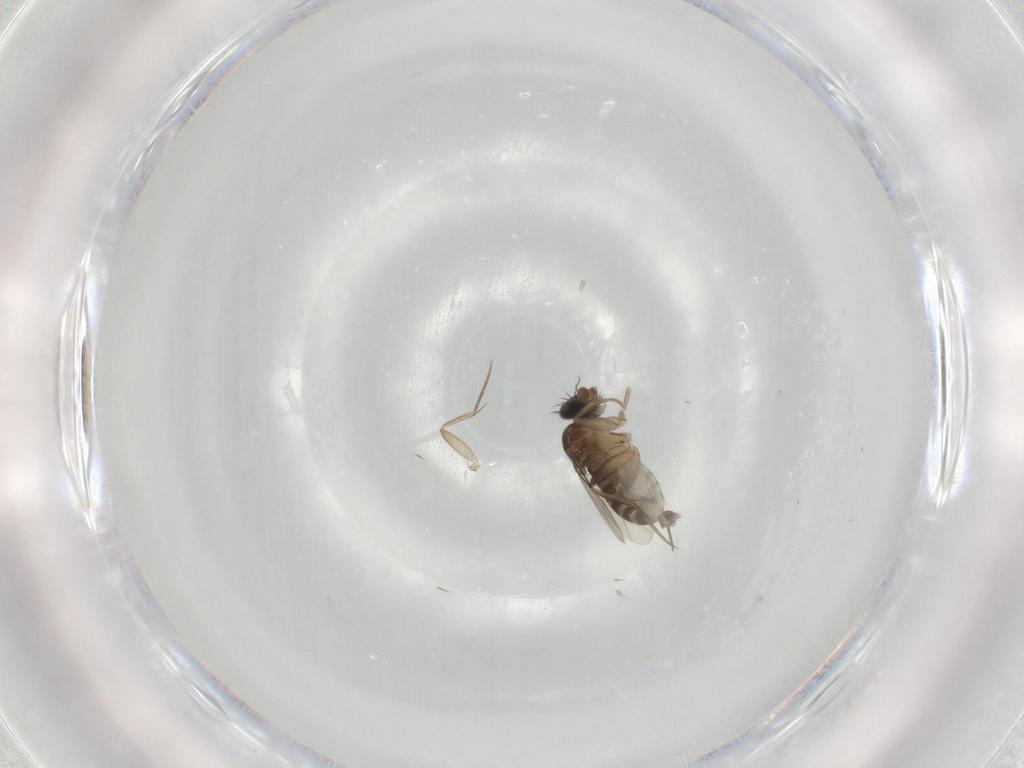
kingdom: Animalia
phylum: Arthropoda
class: Insecta
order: Diptera
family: Phoridae
